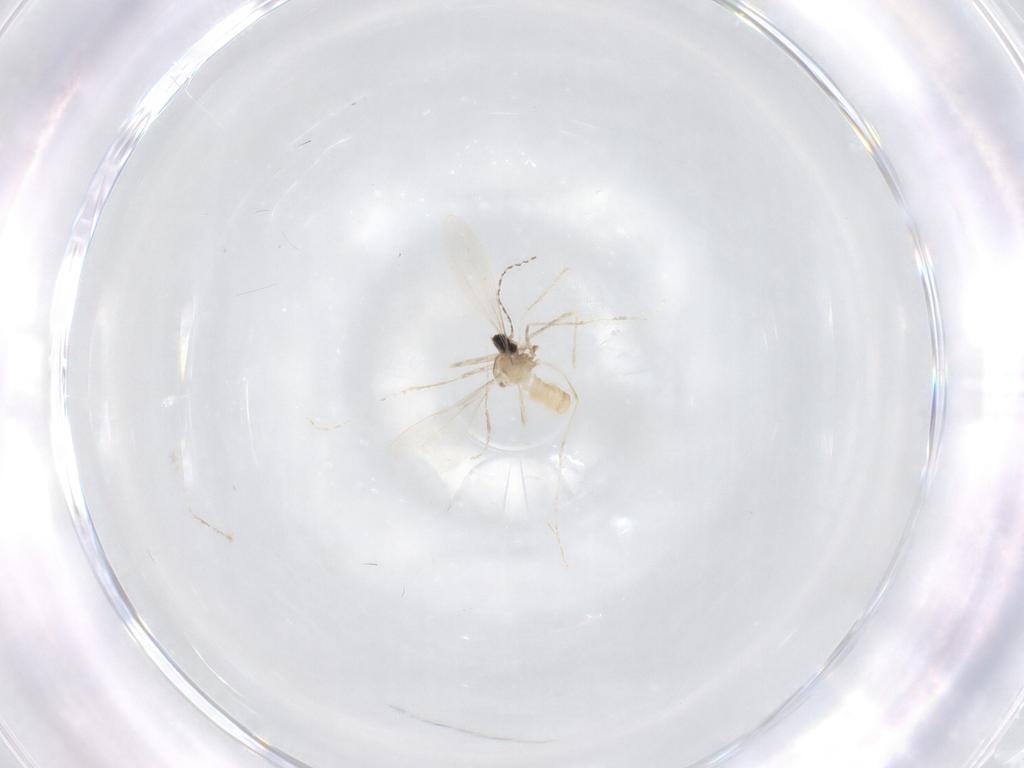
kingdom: Animalia
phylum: Arthropoda
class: Insecta
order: Diptera
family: Cecidomyiidae
